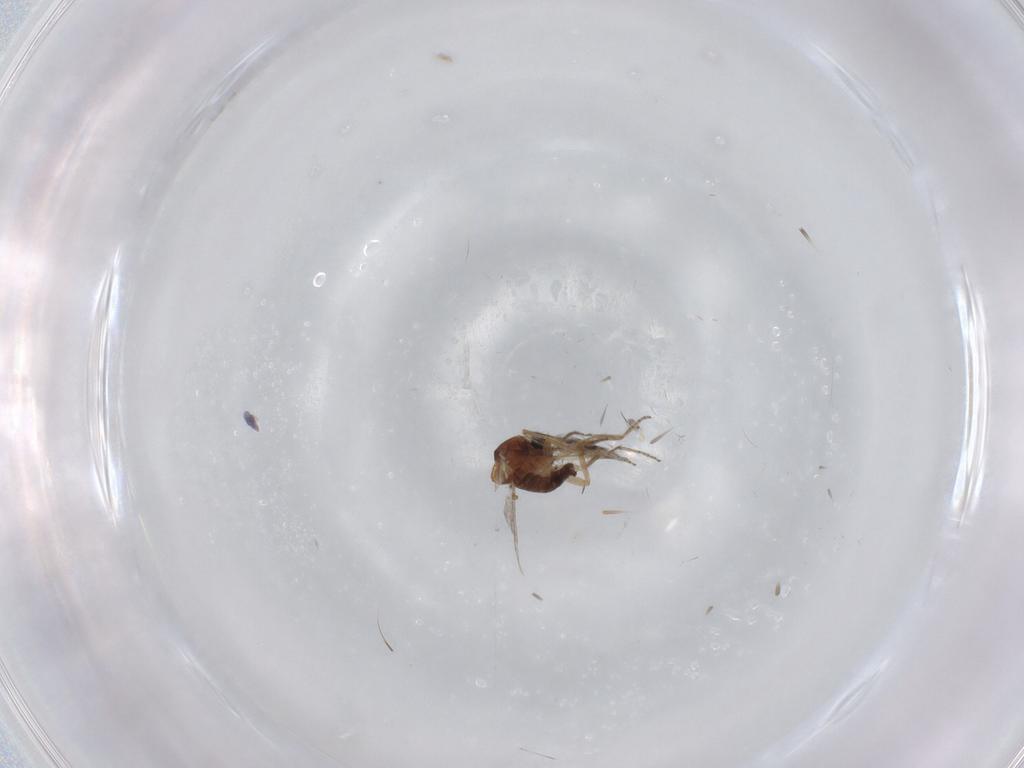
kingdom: Animalia
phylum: Arthropoda
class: Insecta
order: Diptera
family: Ceratopogonidae
